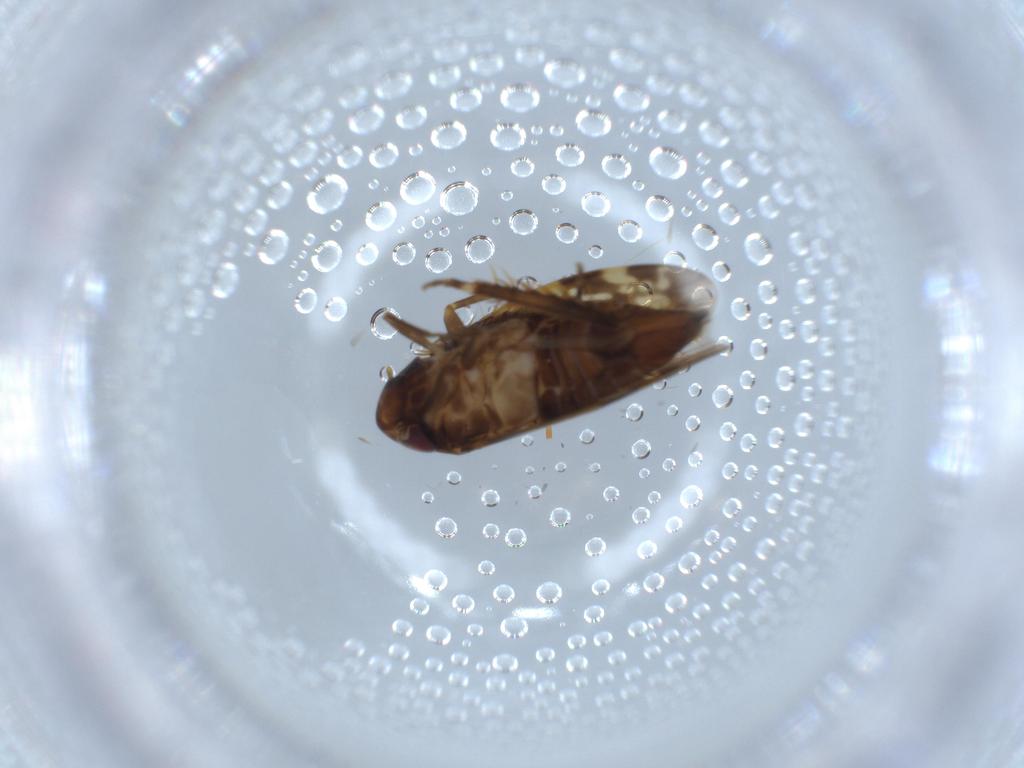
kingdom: Animalia
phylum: Arthropoda
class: Insecta
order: Hemiptera
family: Cicadellidae
